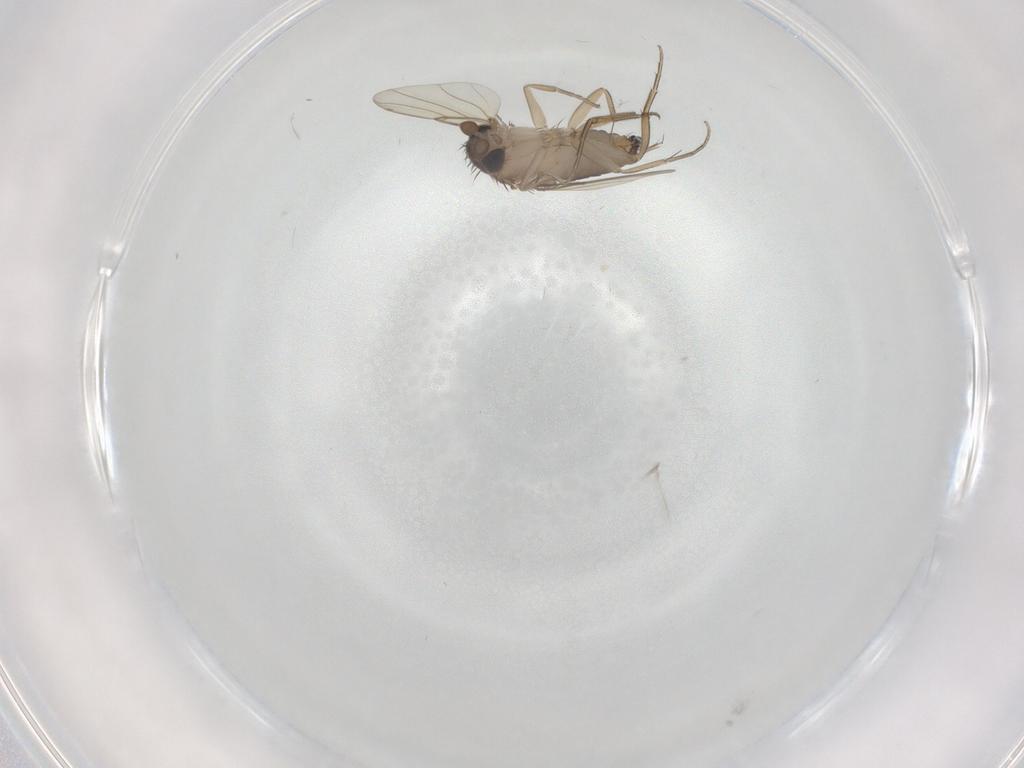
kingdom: Animalia
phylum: Arthropoda
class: Insecta
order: Diptera
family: Phoridae
